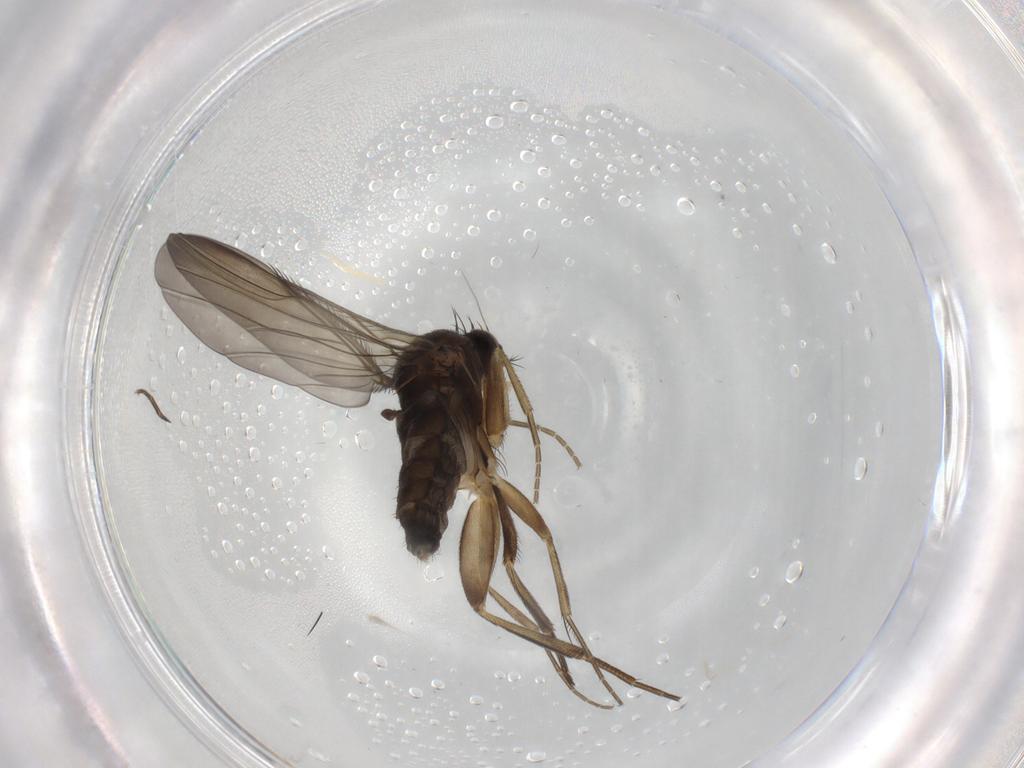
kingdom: Animalia
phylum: Arthropoda
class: Insecta
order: Diptera
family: Phoridae
